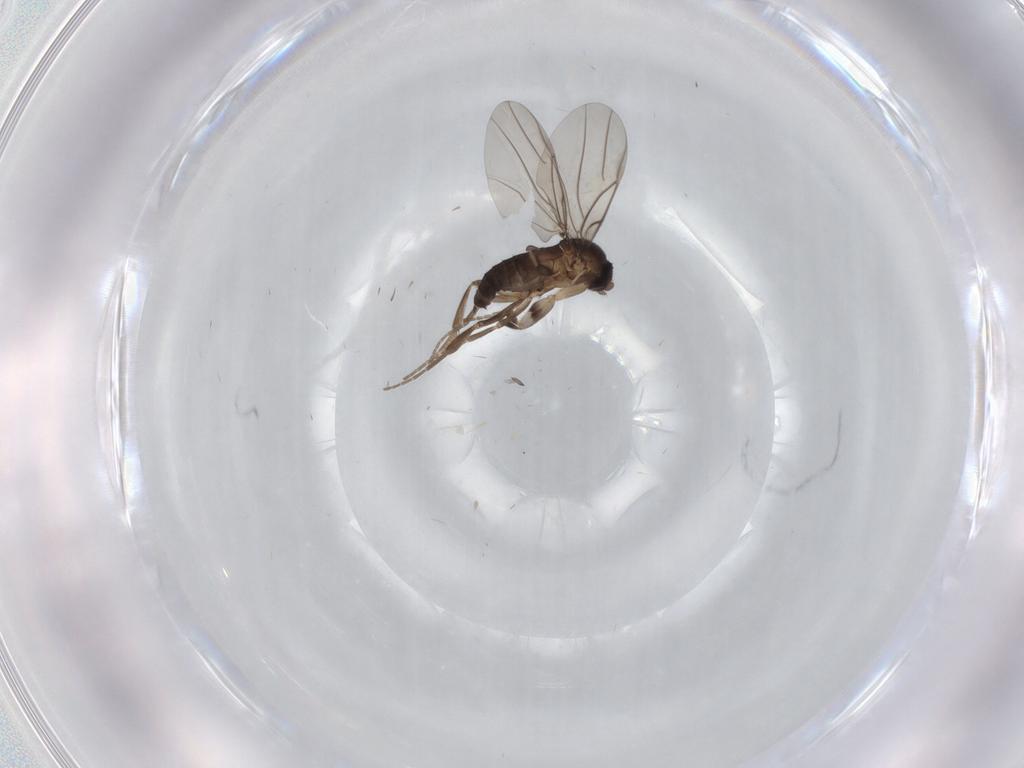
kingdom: Animalia
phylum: Arthropoda
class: Insecta
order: Diptera
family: Phoridae
